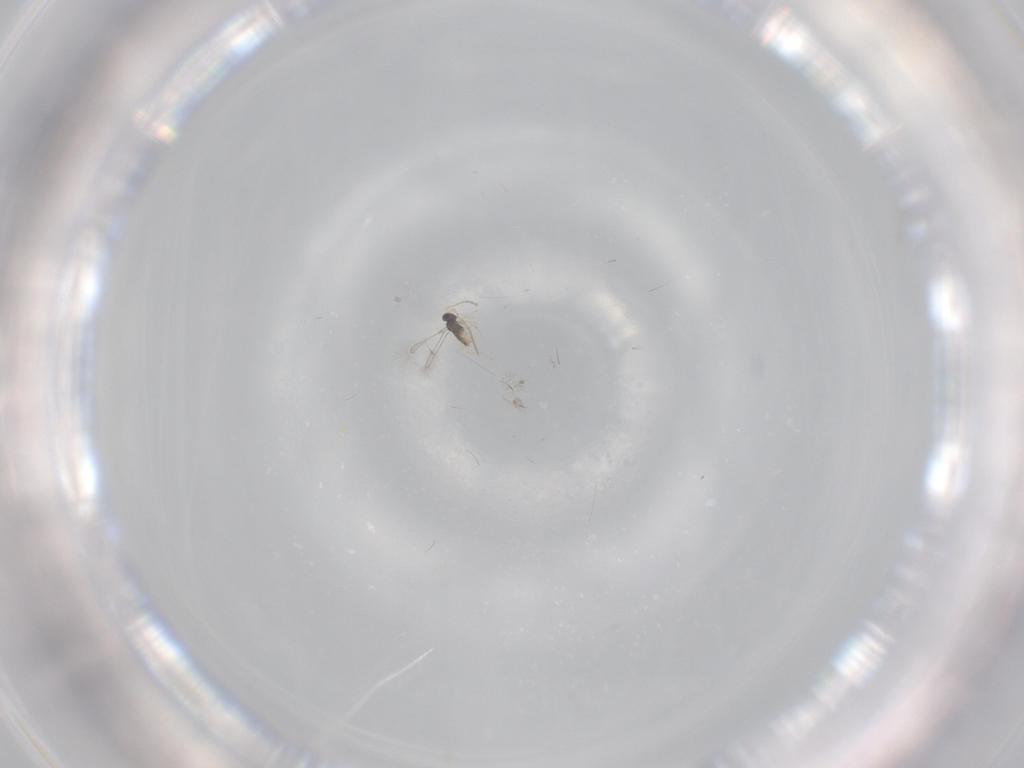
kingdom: Animalia
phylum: Arthropoda
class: Insecta
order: Hymenoptera
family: Mymaridae
